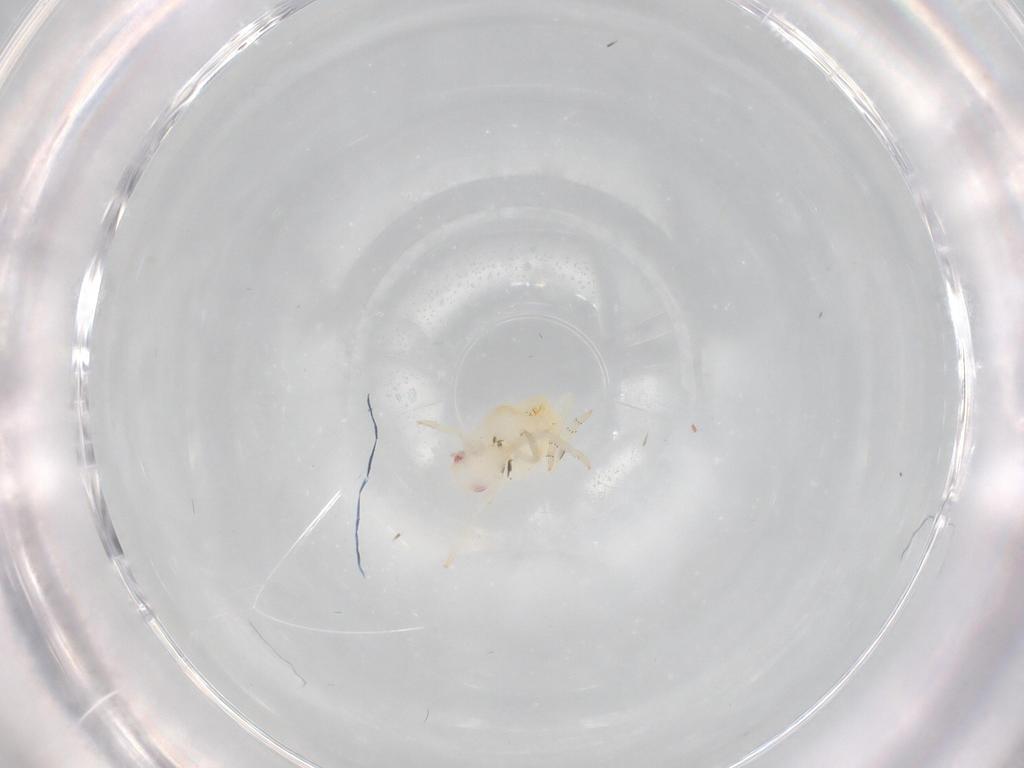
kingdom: Animalia
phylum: Arthropoda
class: Insecta
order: Hemiptera
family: Flatidae
